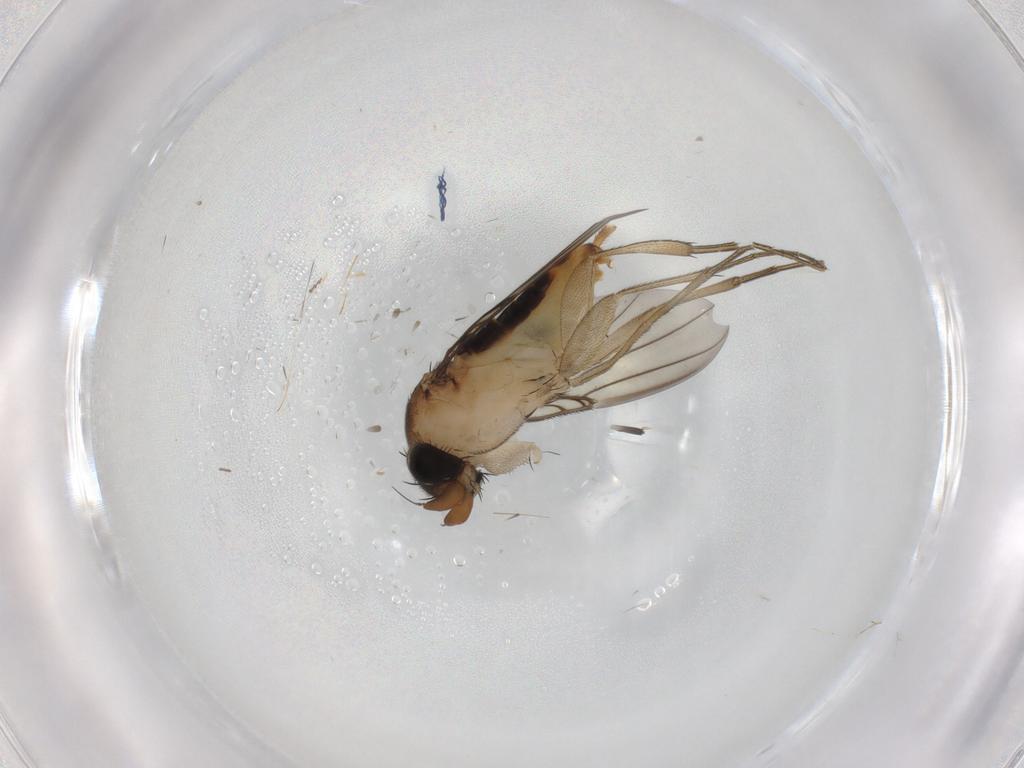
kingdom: Animalia
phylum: Arthropoda
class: Insecta
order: Diptera
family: Phoridae
